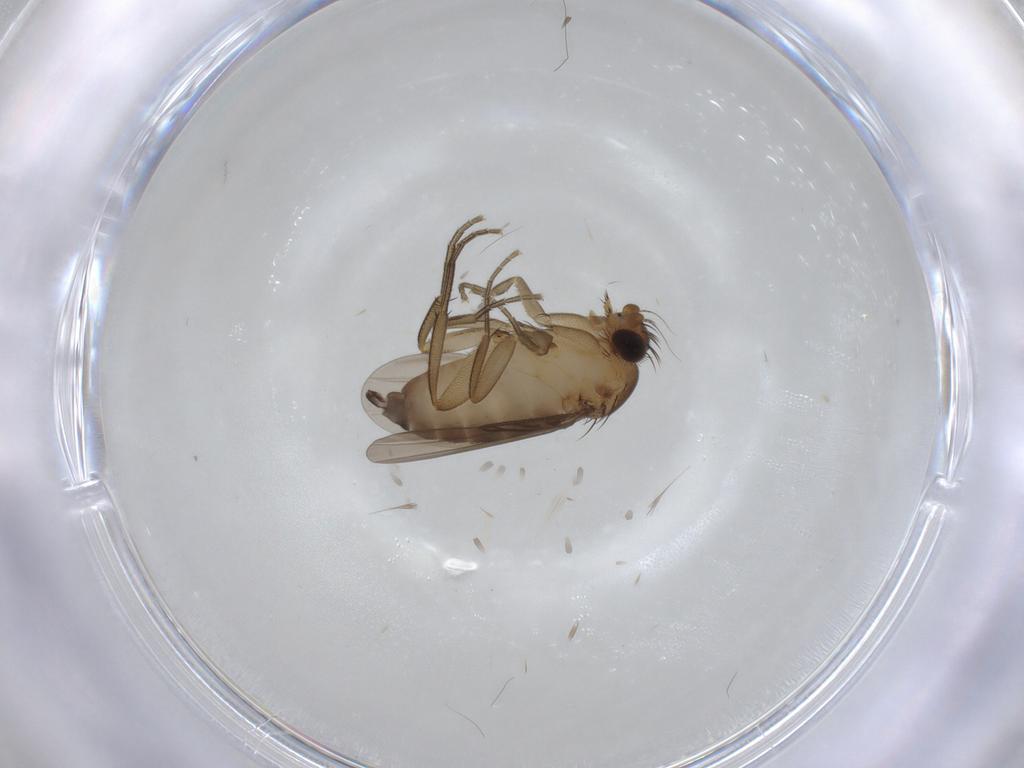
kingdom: Animalia
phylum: Arthropoda
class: Insecta
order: Diptera
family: Phoridae
